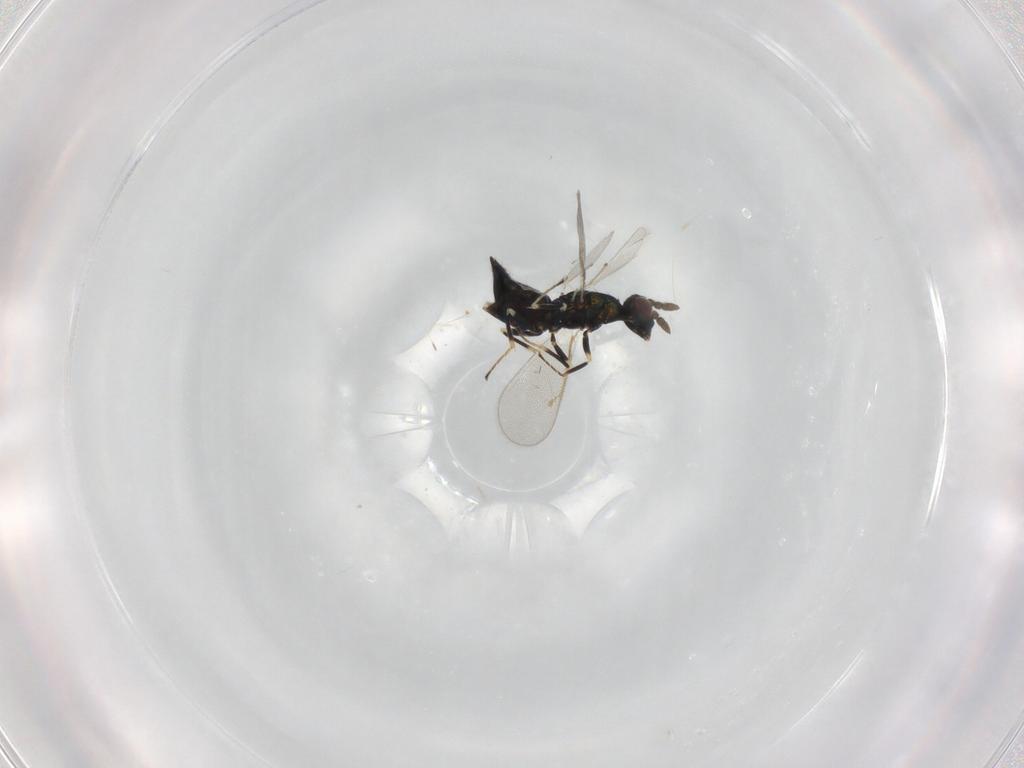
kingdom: Animalia
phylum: Arthropoda
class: Insecta
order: Hymenoptera
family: Eulophidae
